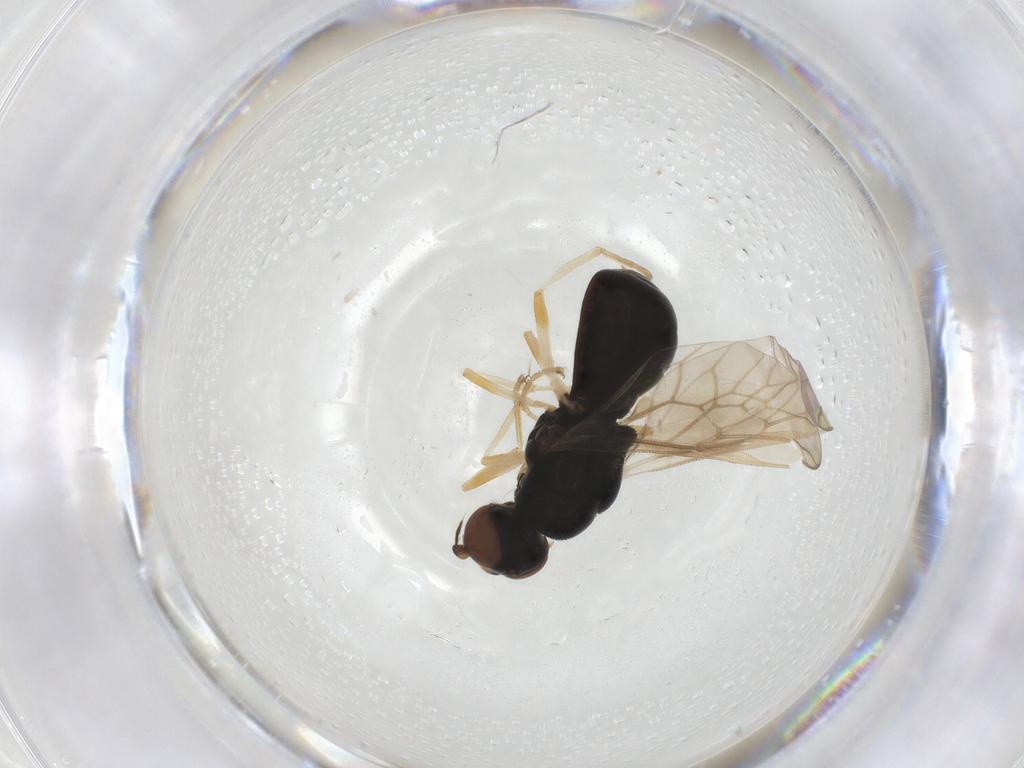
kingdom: Animalia
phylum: Arthropoda
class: Insecta
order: Diptera
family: Stratiomyidae
